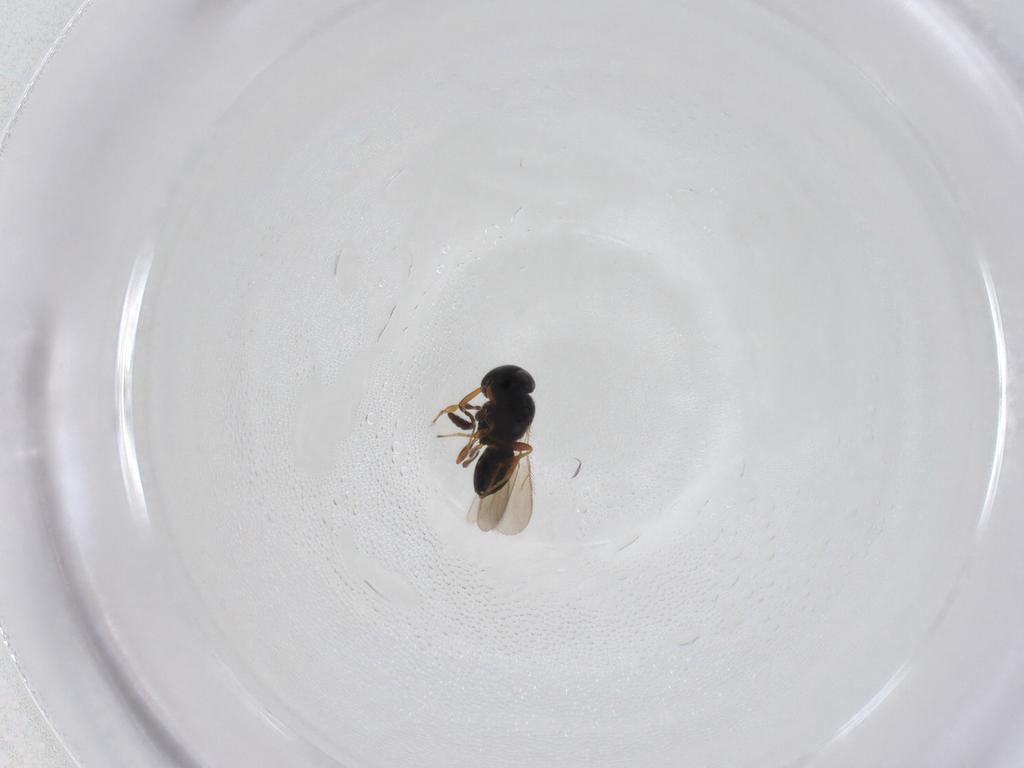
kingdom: Animalia
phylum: Arthropoda
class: Insecta
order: Hymenoptera
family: Scelionidae
